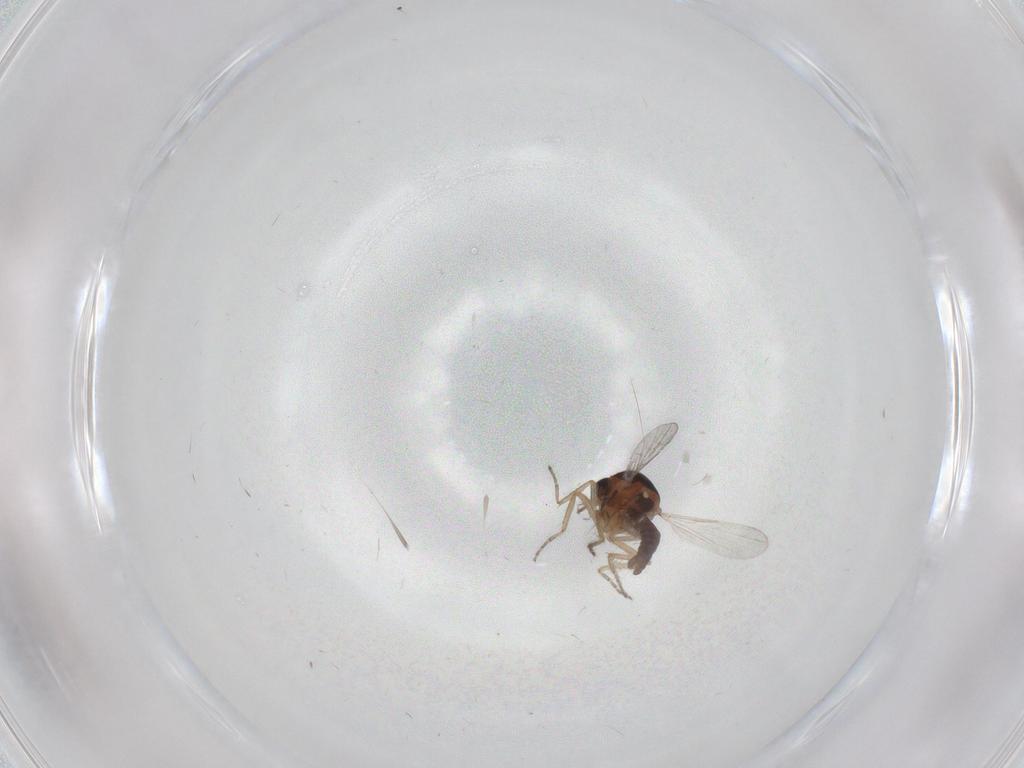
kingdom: Animalia
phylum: Arthropoda
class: Insecta
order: Diptera
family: Ceratopogonidae
